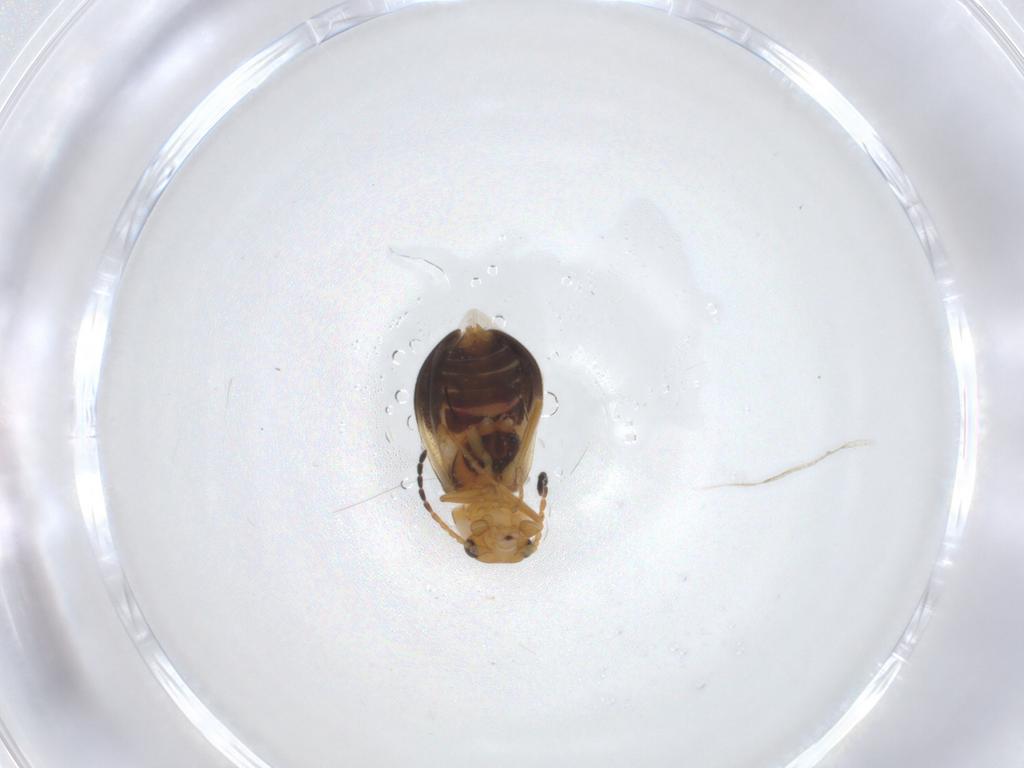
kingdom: Animalia
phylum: Arthropoda
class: Insecta
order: Coleoptera
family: Melyridae
